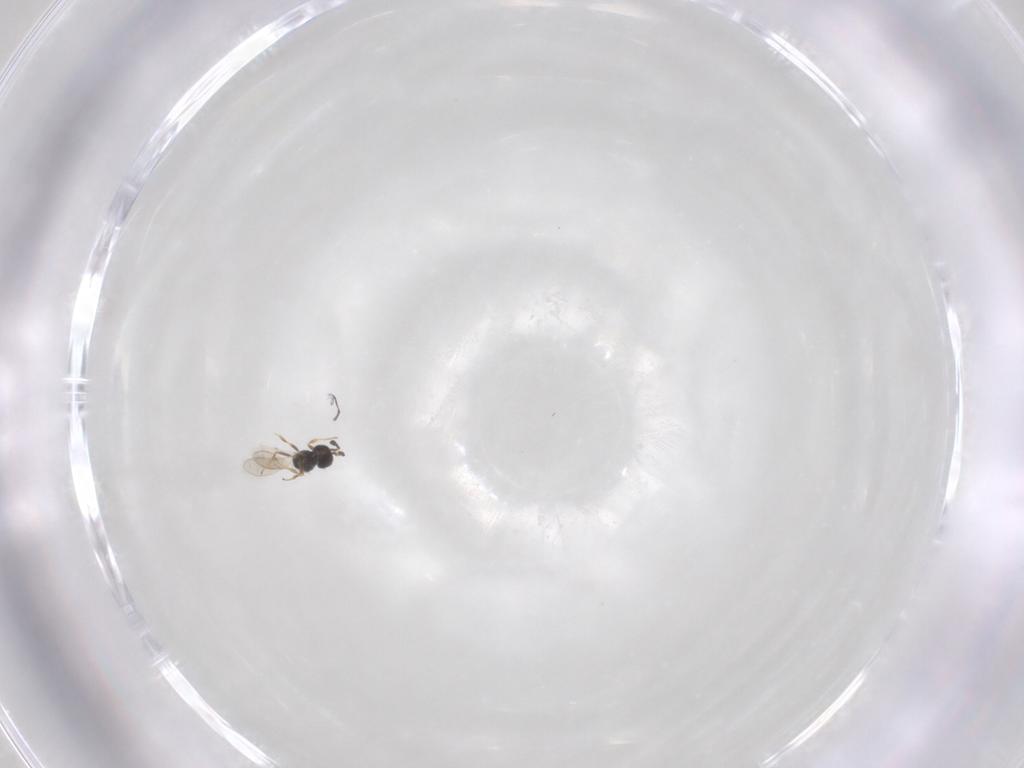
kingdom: Animalia
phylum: Arthropoda
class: Insecta
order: Hymenoptera
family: Scelionidae
